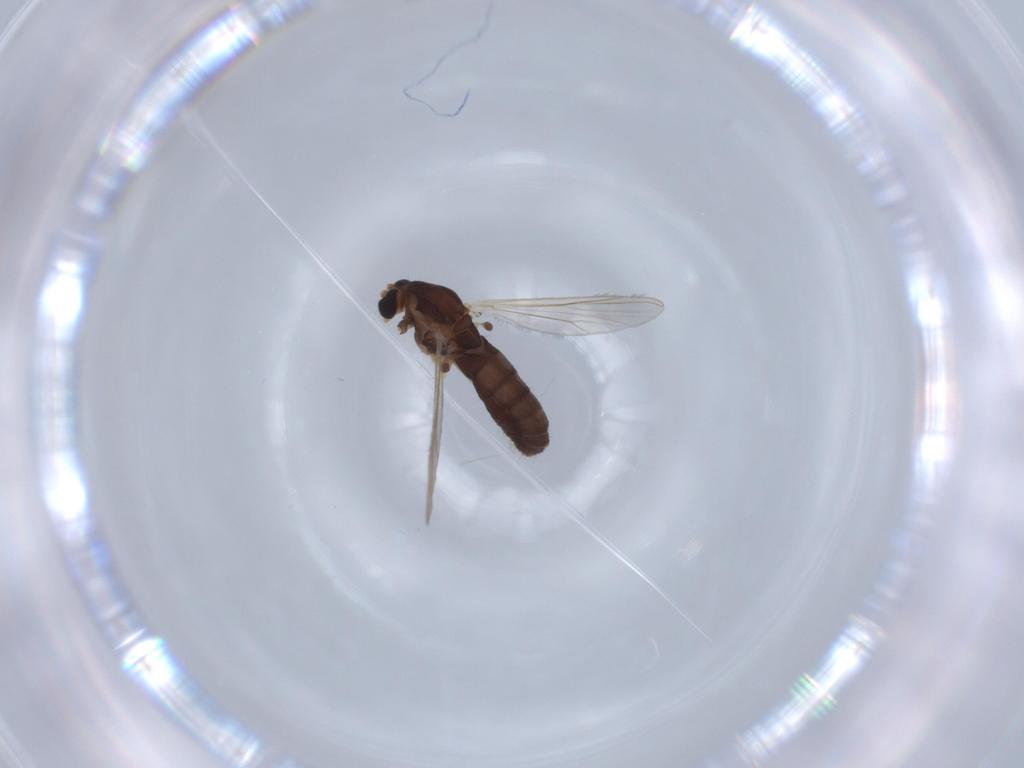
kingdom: Animalia
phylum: Arthropoda
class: Insecta
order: Diptera
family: Chironomidae
